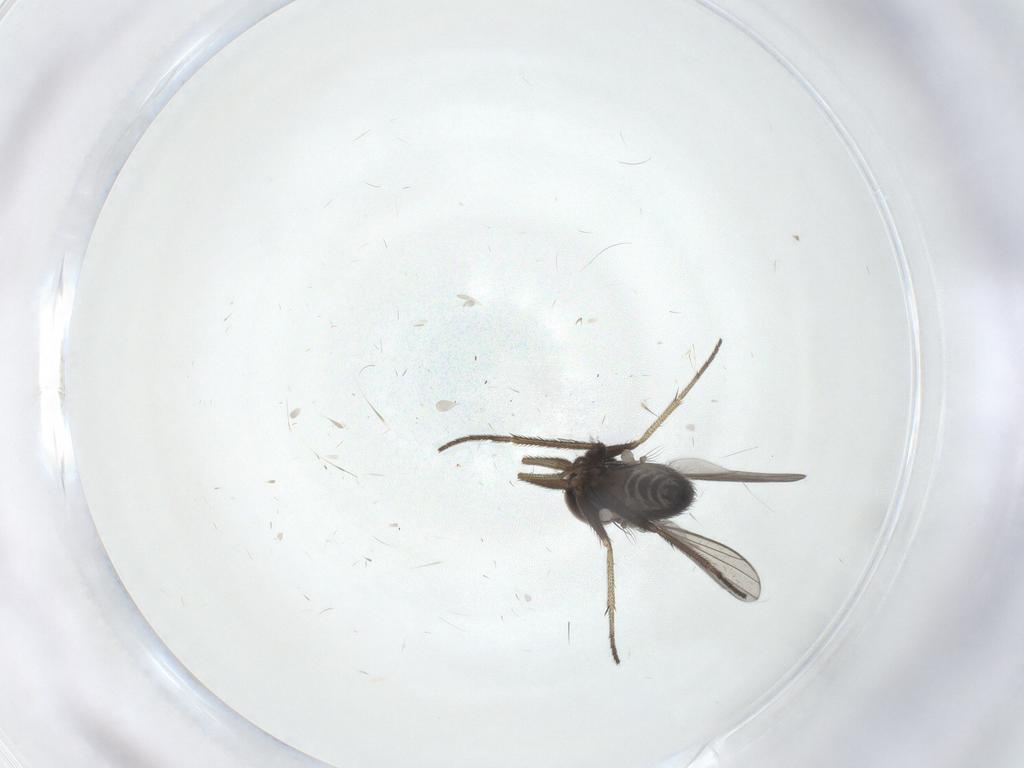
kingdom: Animalia
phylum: Arthropoda
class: Insecta
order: Diptera
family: Dolichopodidae
